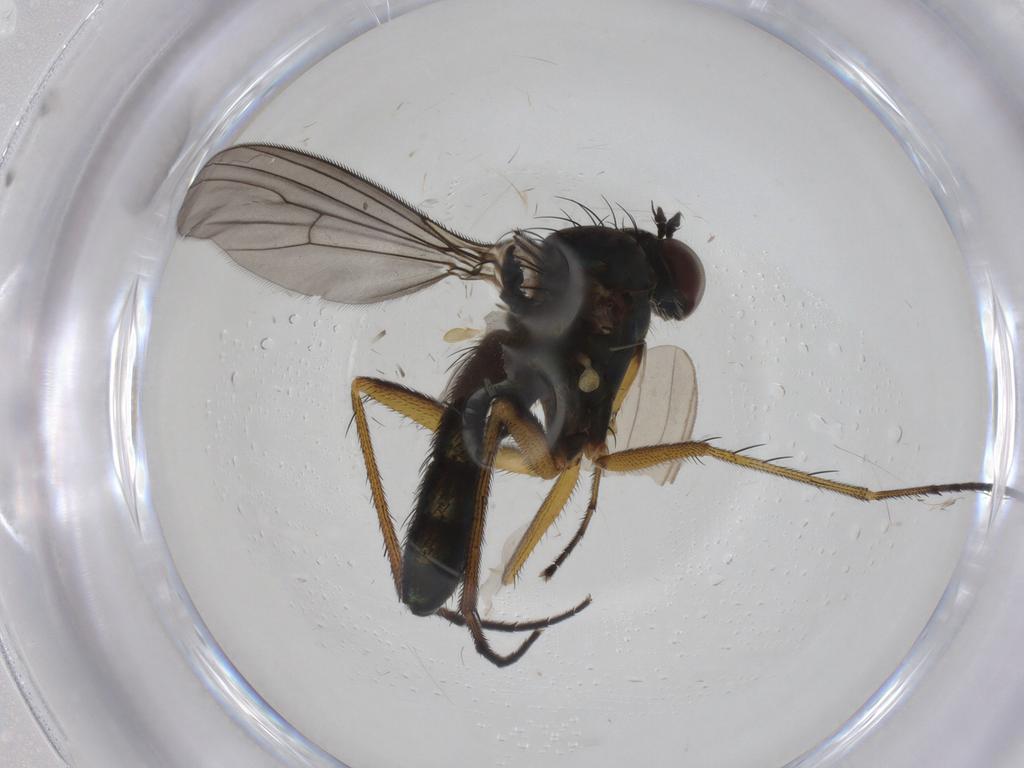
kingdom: Animalia
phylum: Arthropoda
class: Insecta
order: Diptera
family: Dolichopodidae
